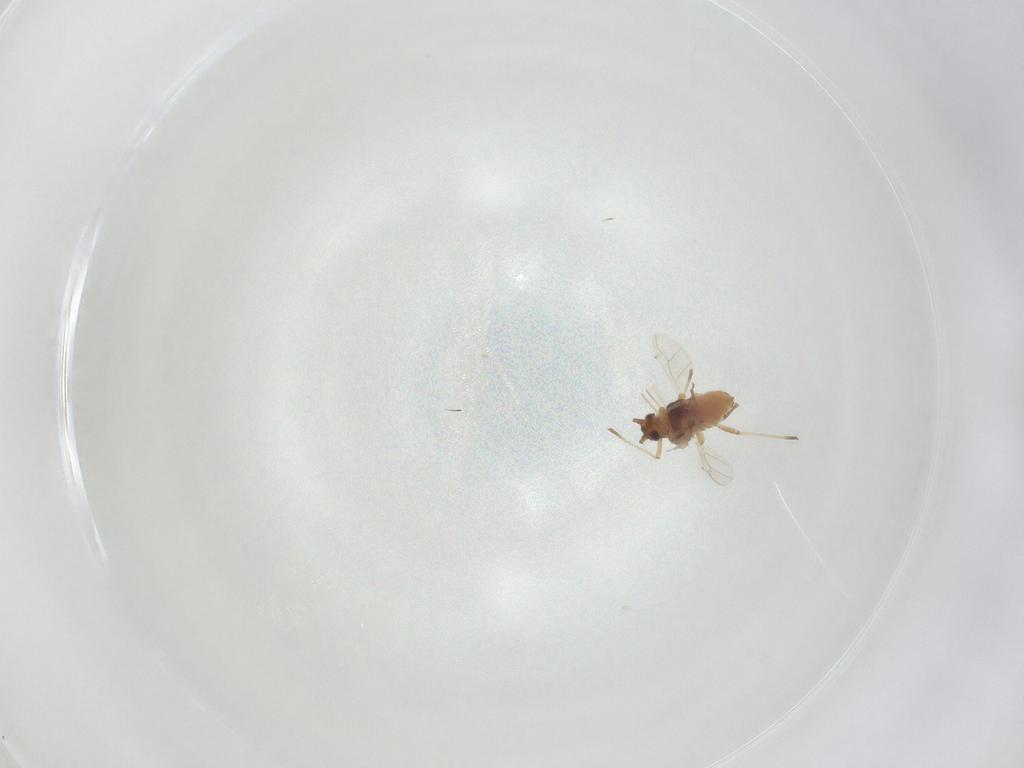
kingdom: Animalia
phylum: Arthropoda
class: Insecta
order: Hemiptera
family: Aphididae
